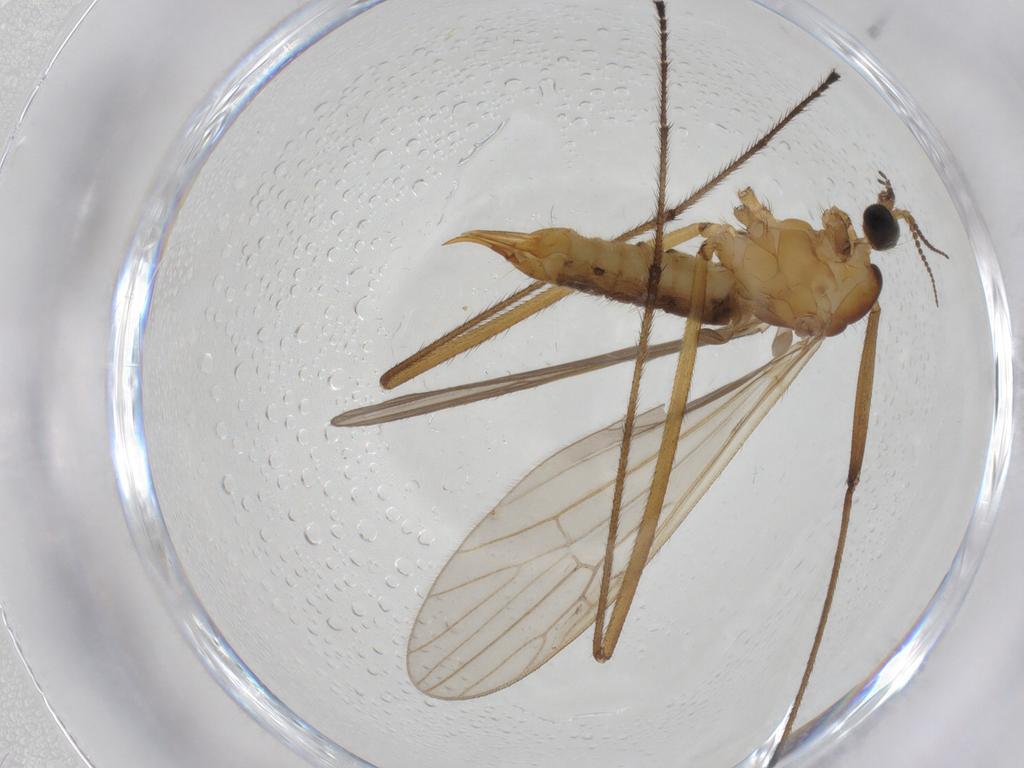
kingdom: Animalia
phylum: Arthropoda
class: Insecta
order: Diptera
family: Limoniidae
